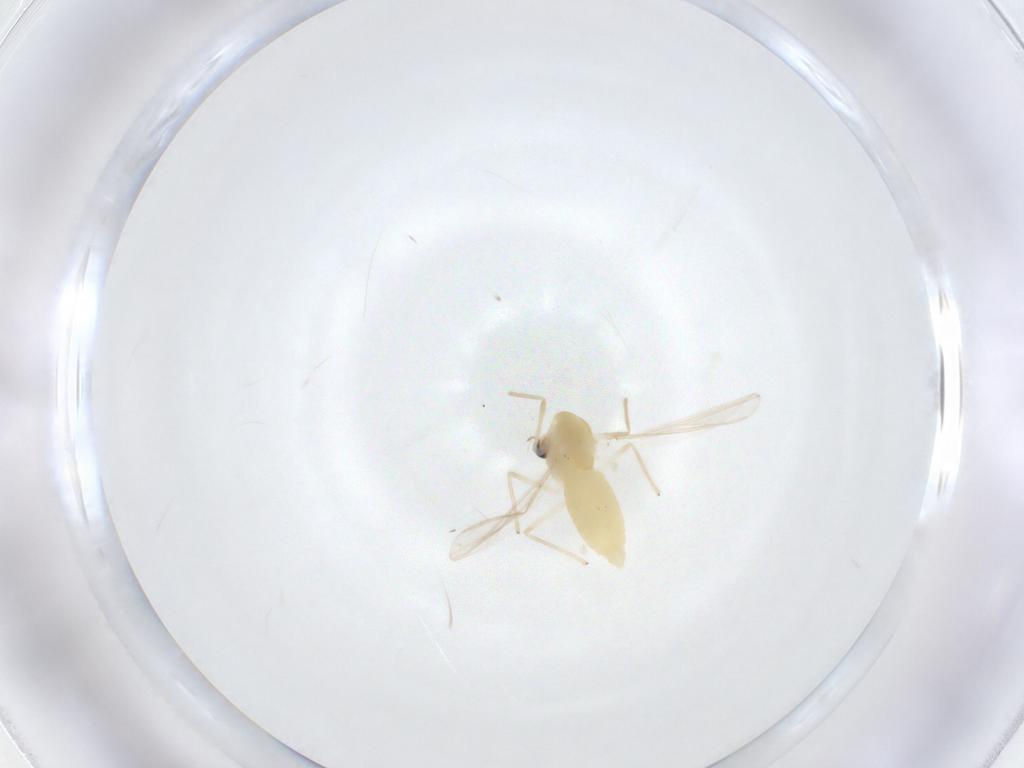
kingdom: Animalia
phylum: Arthropoda
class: Insecta
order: Diptera
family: Chironomidae
